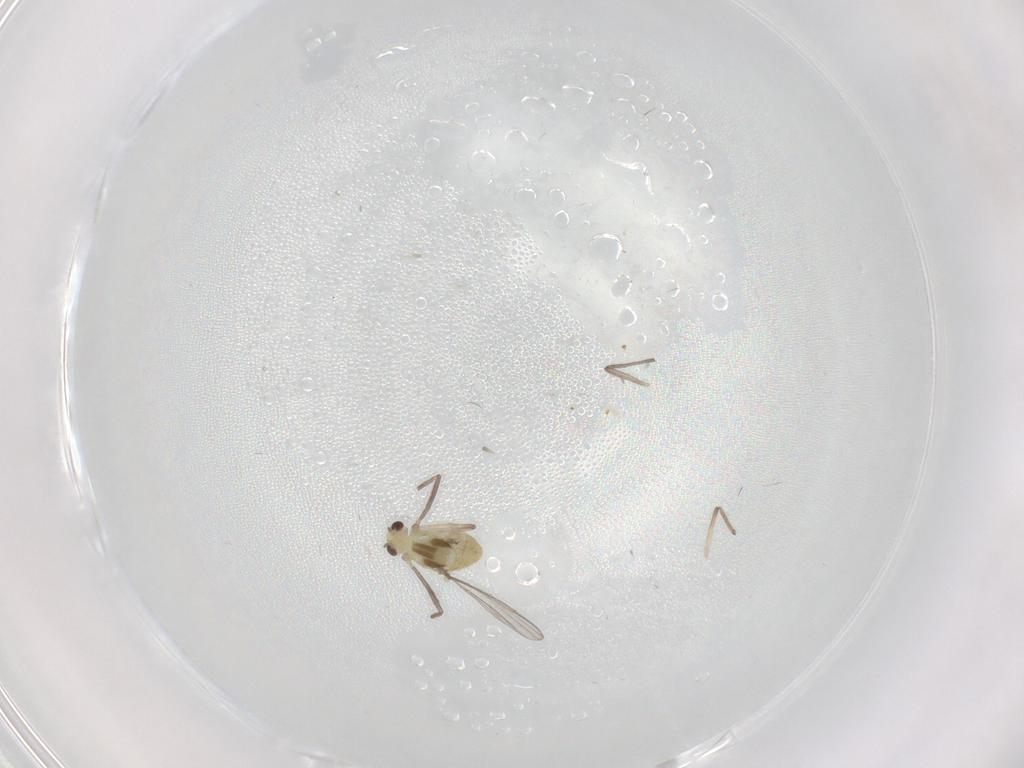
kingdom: Animalia
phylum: Arthropoda
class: Insecta
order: Diptera
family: Chironomidae
